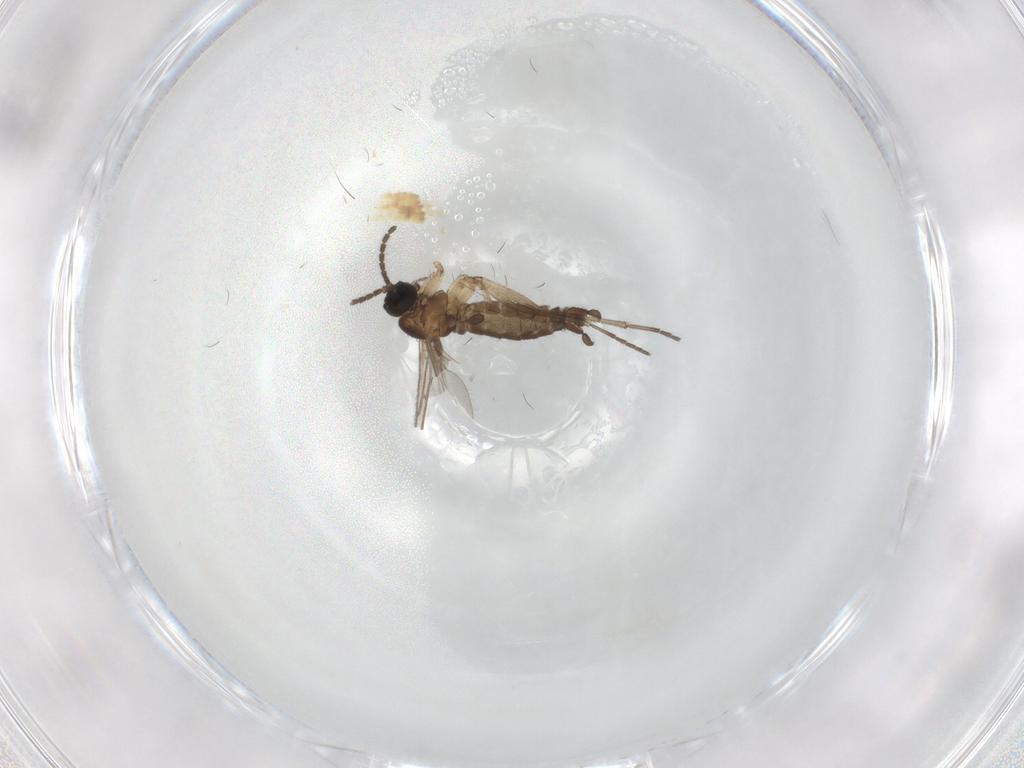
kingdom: Animalia
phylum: Arthropoda
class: Insecta
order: Diptera
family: Sciaridae
